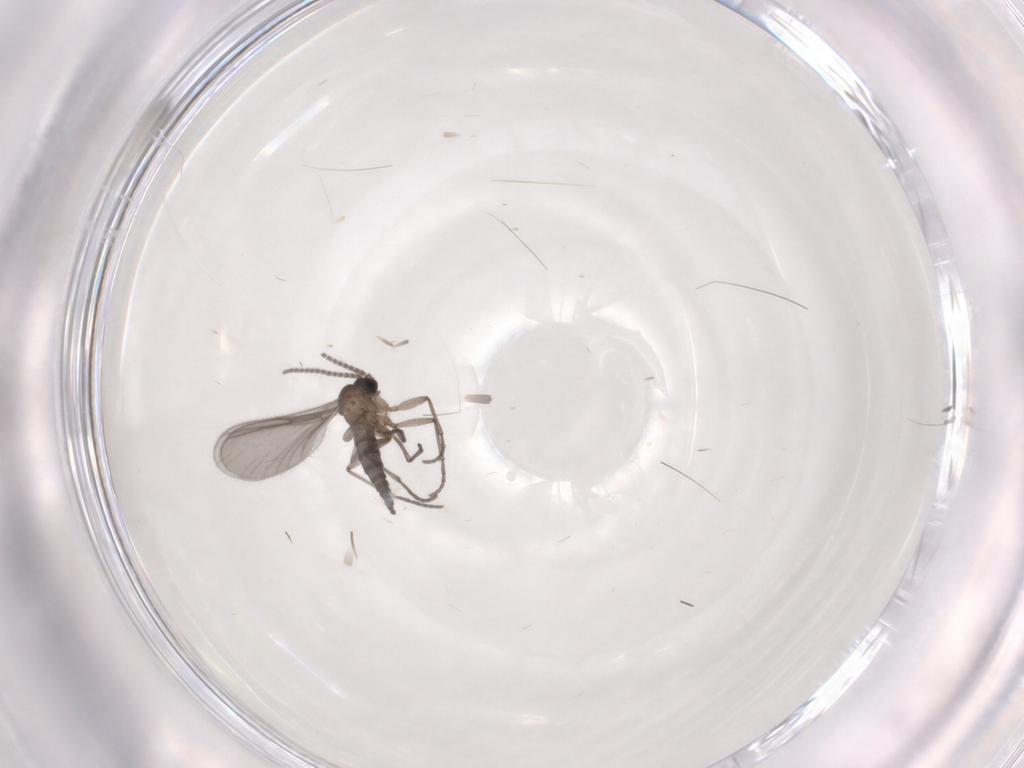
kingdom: Animalia
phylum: Arthropoda
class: Insecta
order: Diptera
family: Sciaridae
